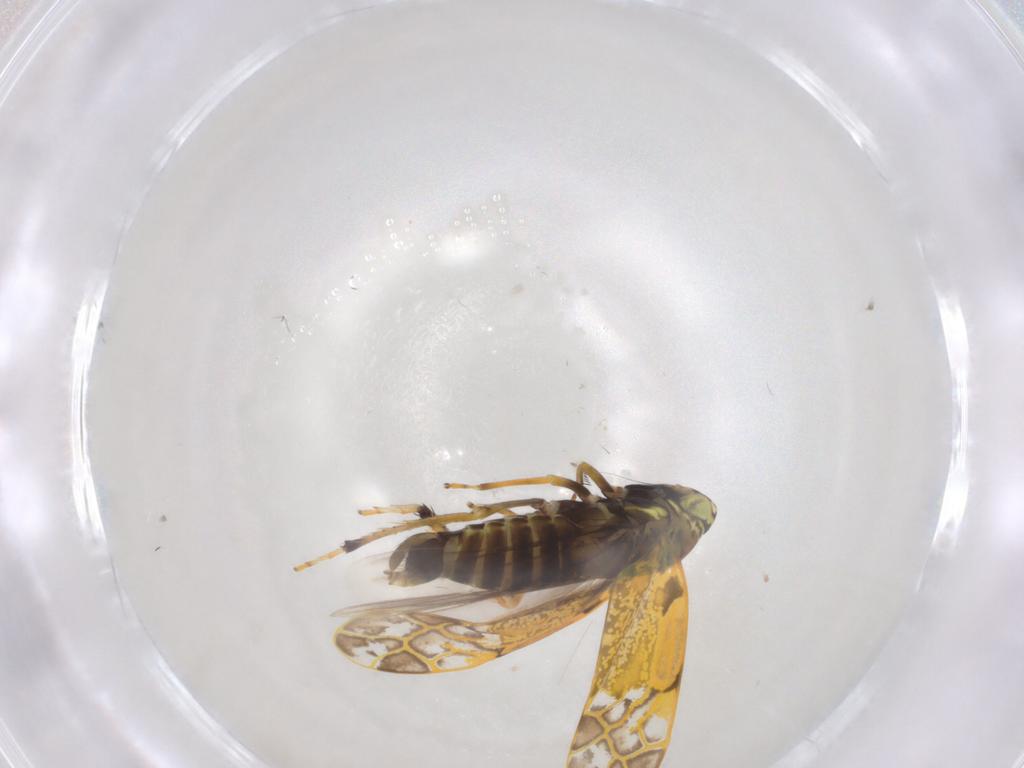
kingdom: Animalia
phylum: Arthropoda
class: Insecta
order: Hemiptera
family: Cicadellidae
